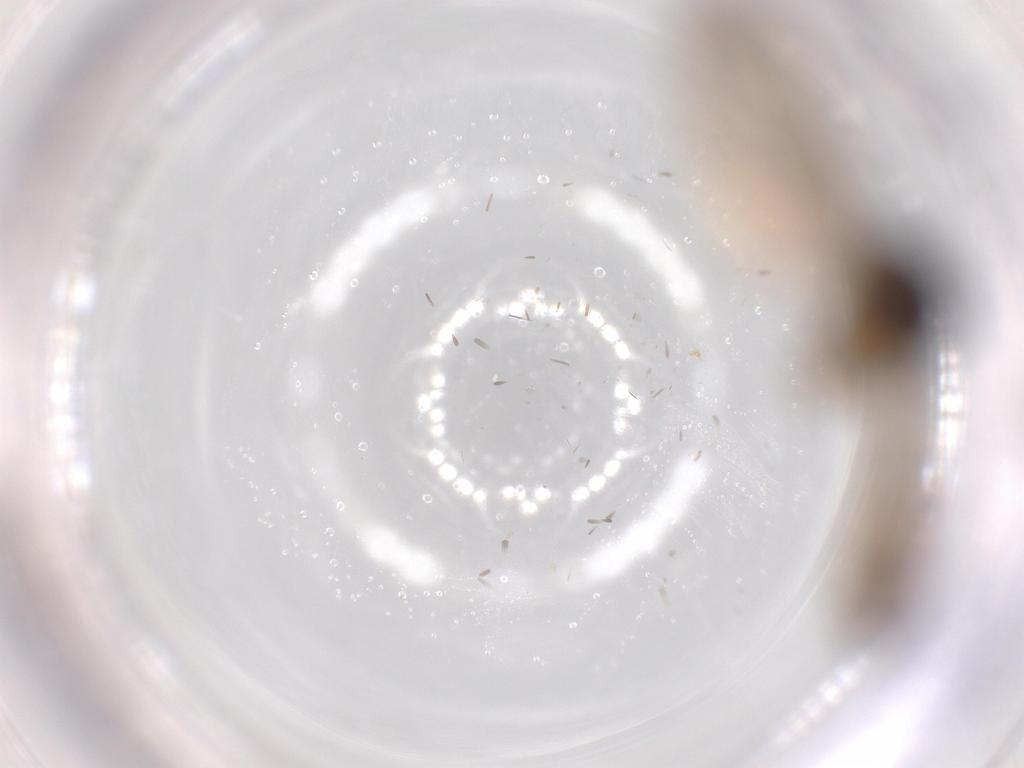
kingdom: Animalia
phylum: Arthropoda
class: Insecta
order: Diptera
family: Mycetophilidae
